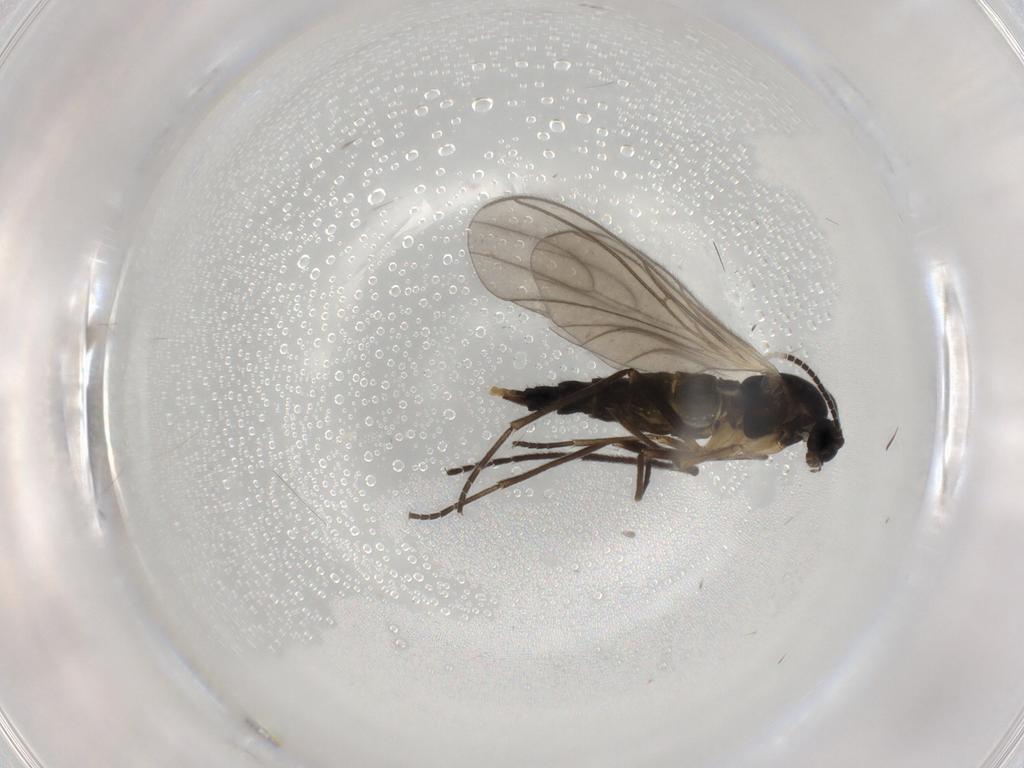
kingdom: Animalia
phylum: Arthropoda
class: Insecta
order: Diptera
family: Sciaridae
